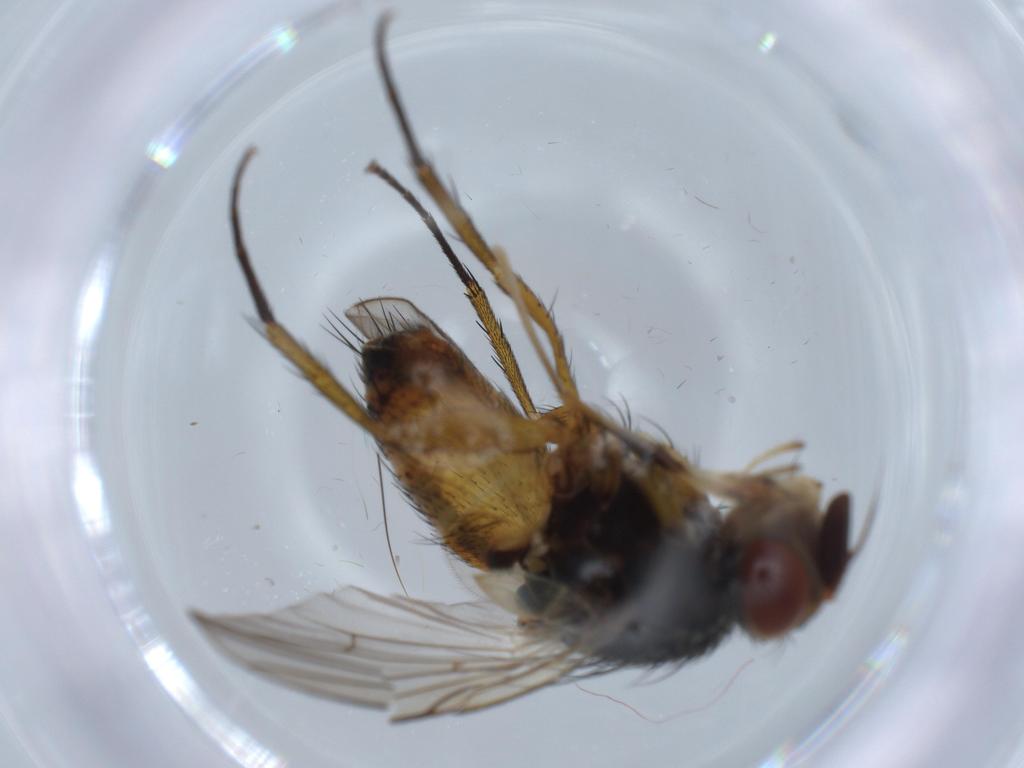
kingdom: Animalia
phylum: Arthropoda
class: Insecta
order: Diptera
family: Tachinidae
